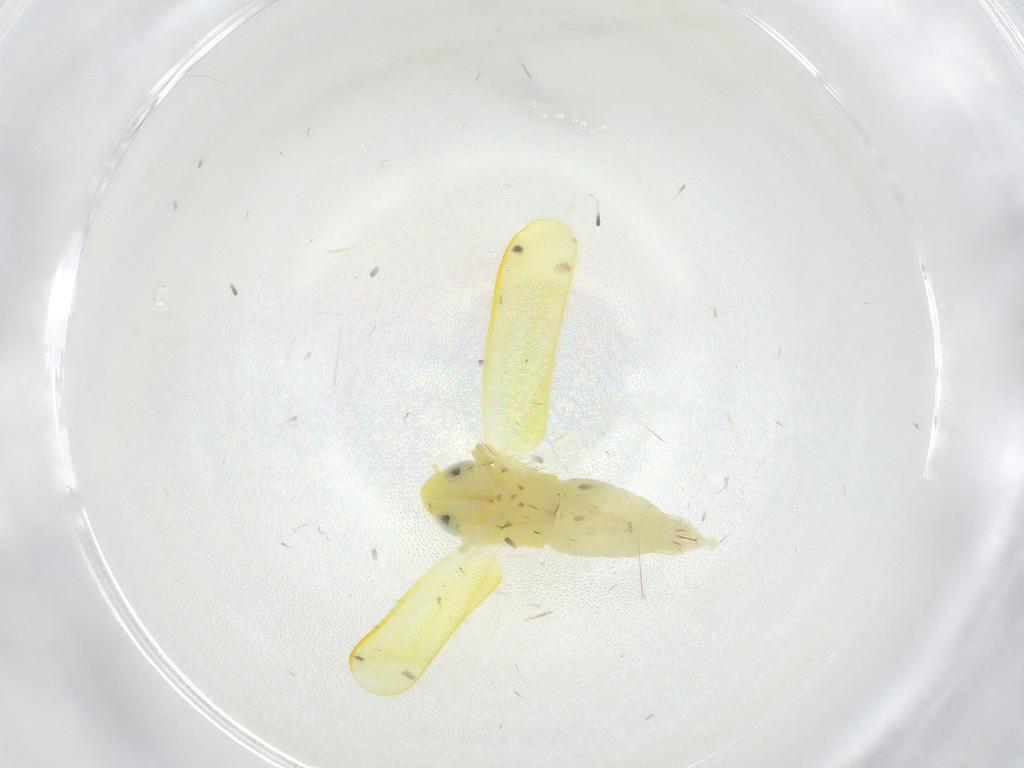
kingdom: Animalia
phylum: Arthropoda
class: Insecta
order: Hemiptera
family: Cicadellidae
